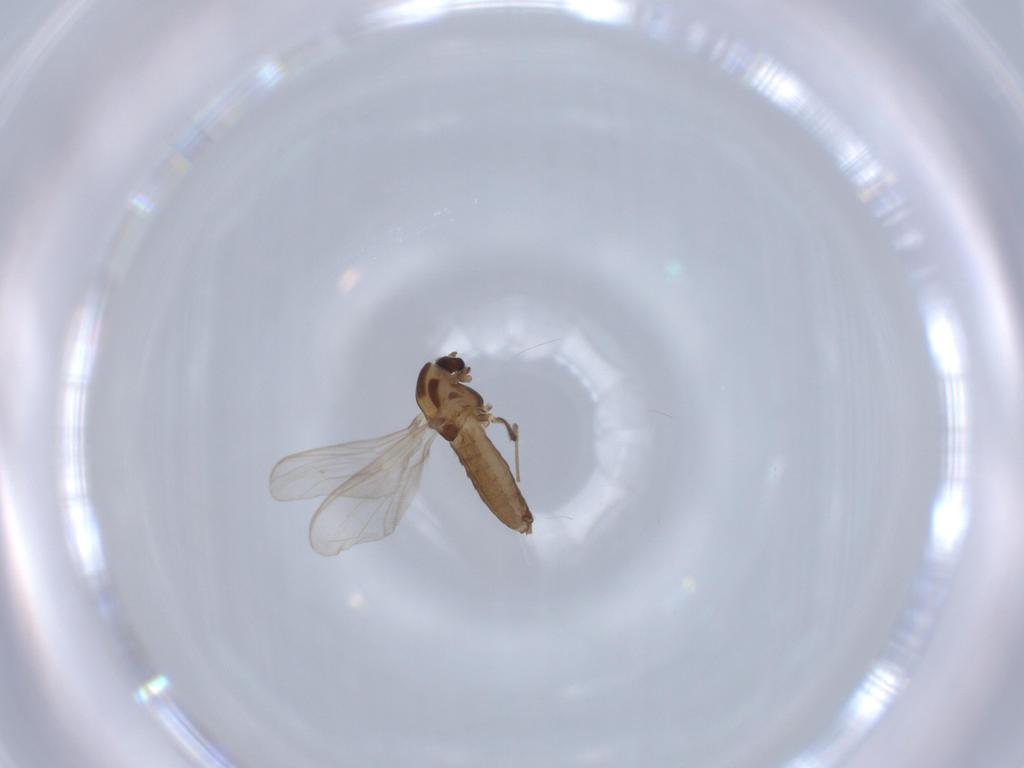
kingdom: Animalia
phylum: Arthropoda
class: Insecta
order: Diptera
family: Chironomidae
